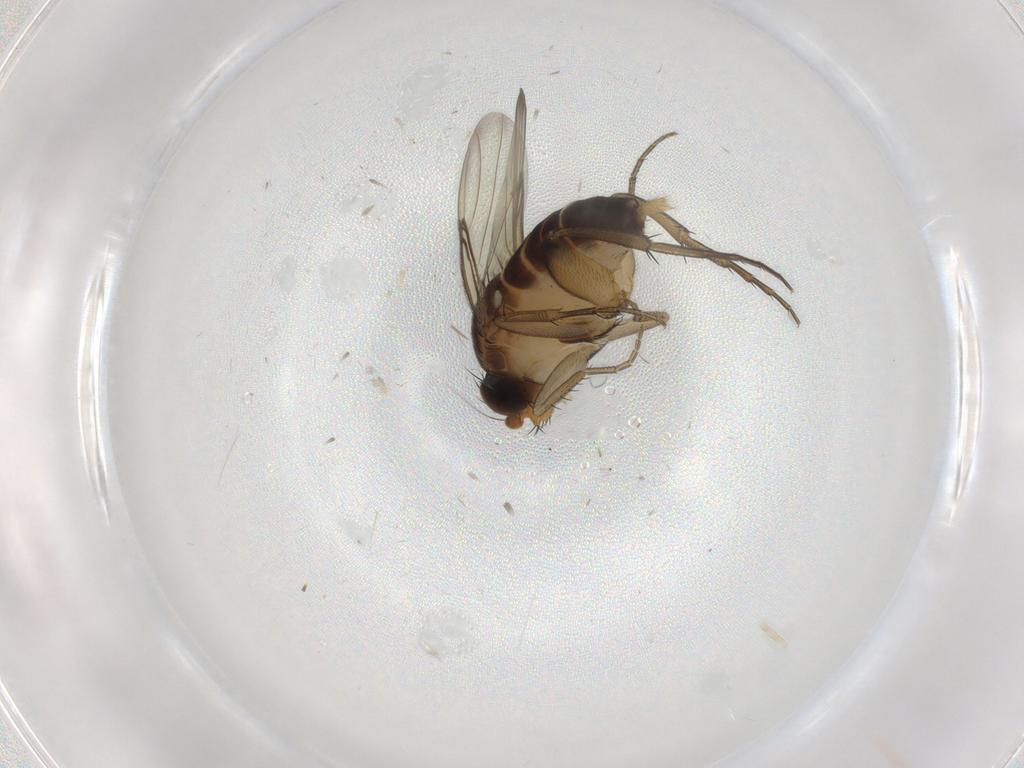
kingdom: Animalia
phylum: Arthropoda
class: Insecta
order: Diptera
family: Phoridae
